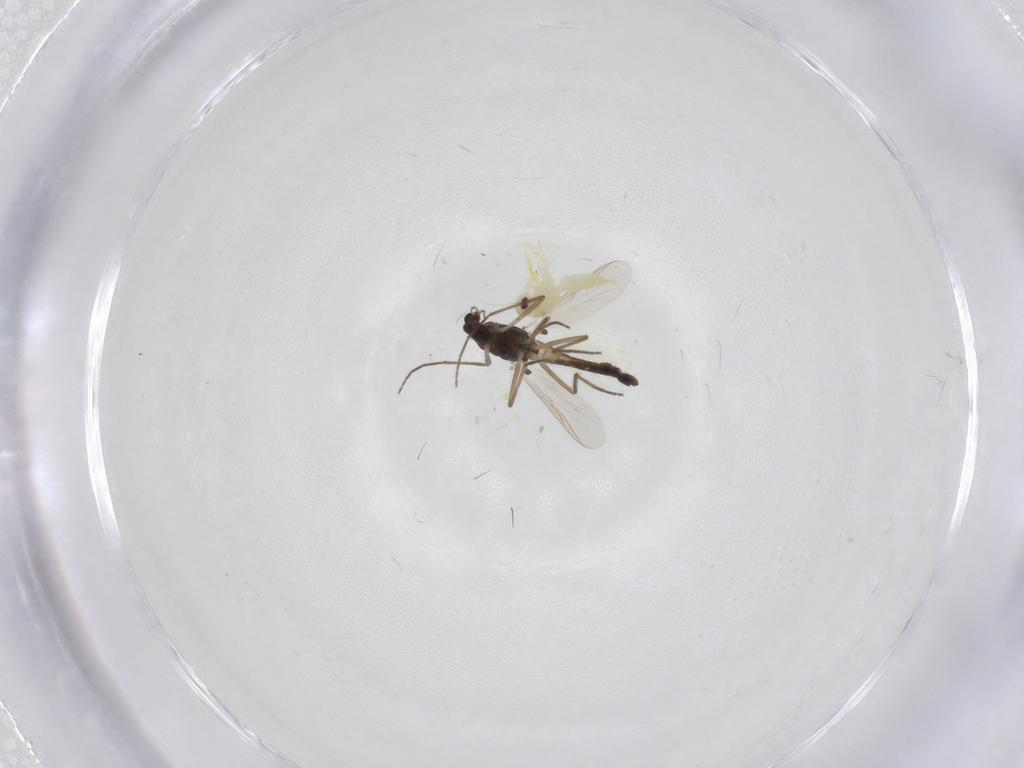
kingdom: Animalia
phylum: Arthropoda
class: Insecta
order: Diptera
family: Chironomidae
